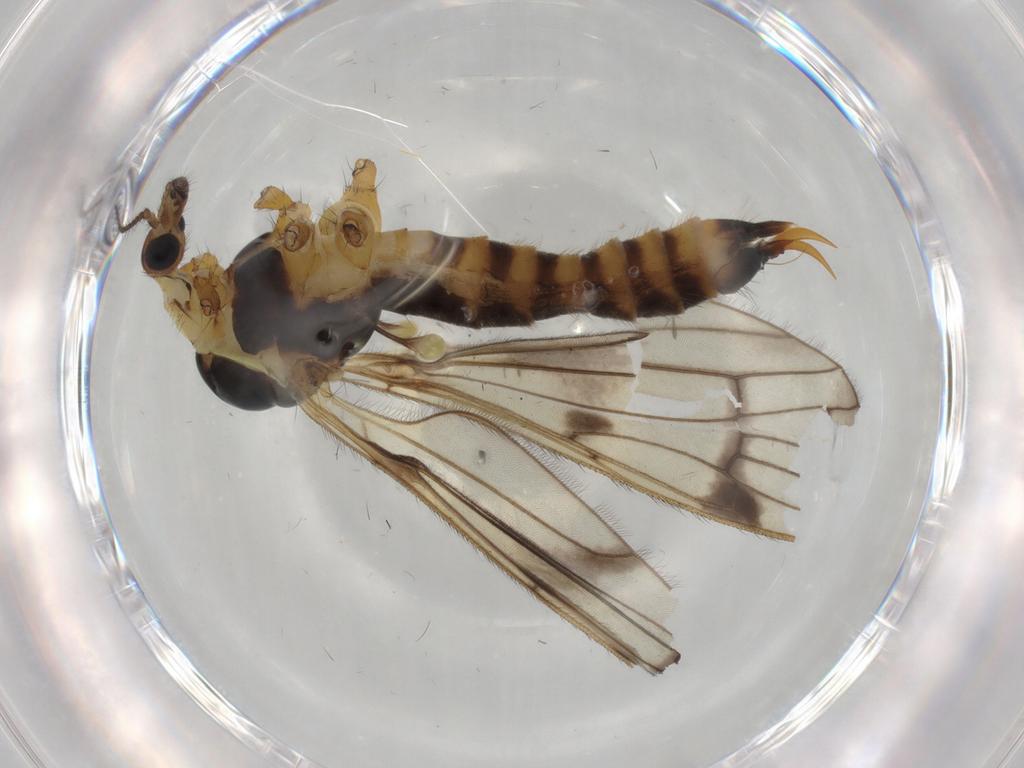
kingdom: Animalia
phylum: Arthropoda
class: Insecta
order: Diptera
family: Limoniidae
